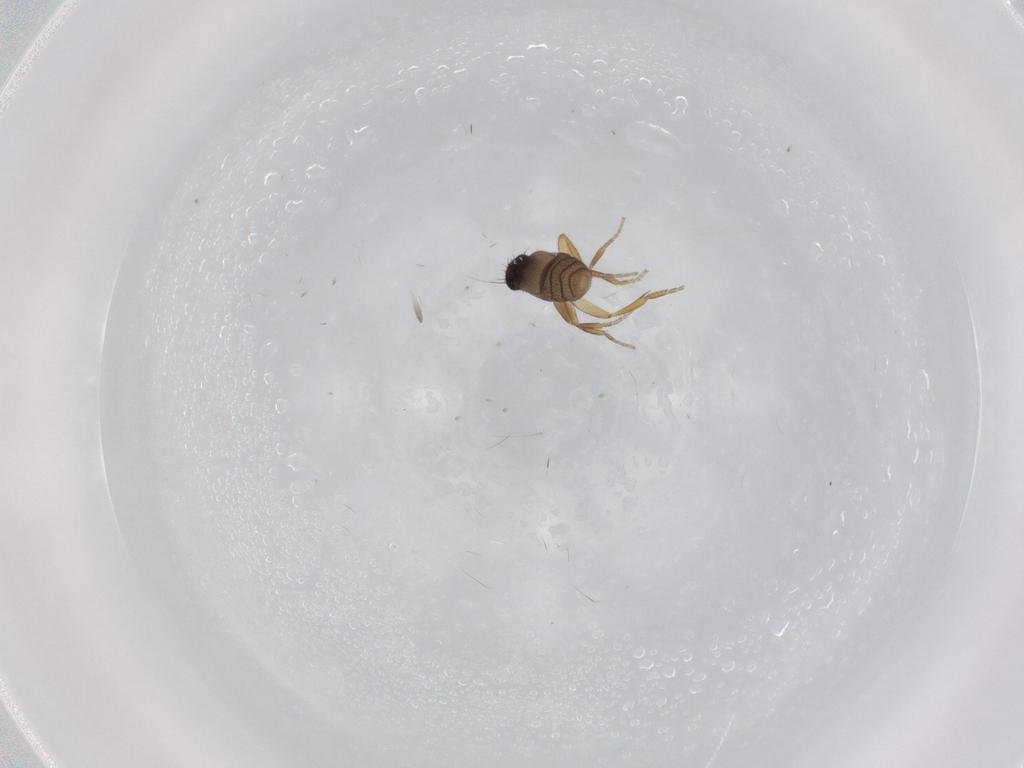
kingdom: Animalia
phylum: Arthropoda
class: Insecta
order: Diptera
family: Phoridae
